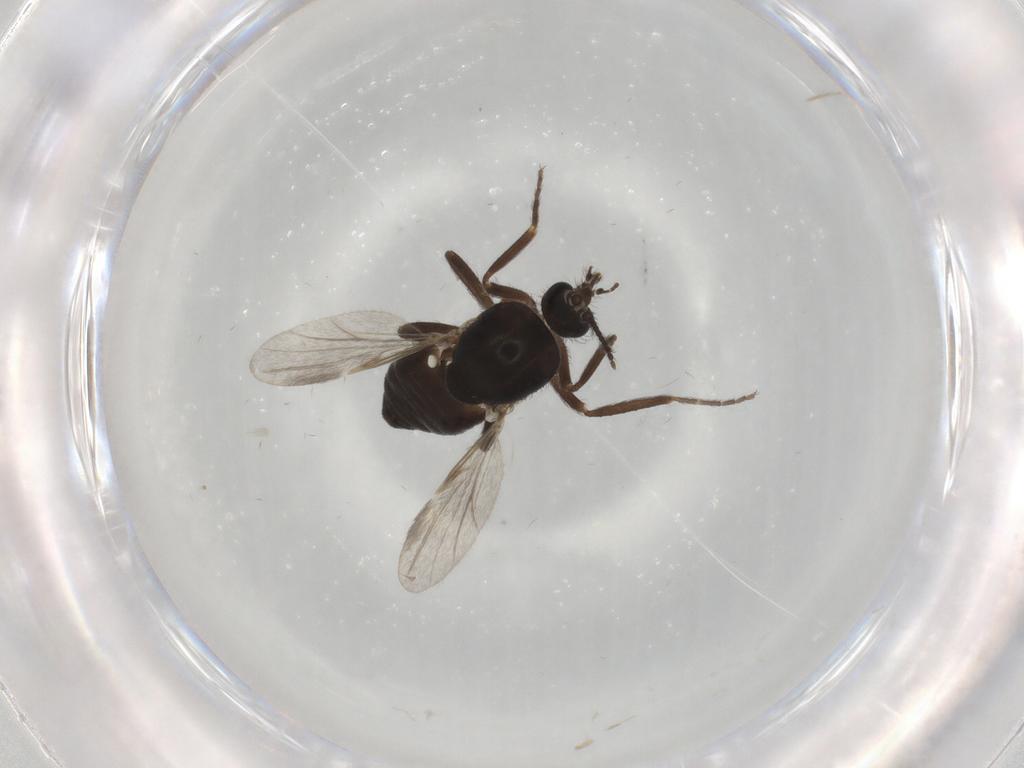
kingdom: Animalia
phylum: Arthropoda
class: Insecta
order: Diptera
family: Ceratopogonidae
